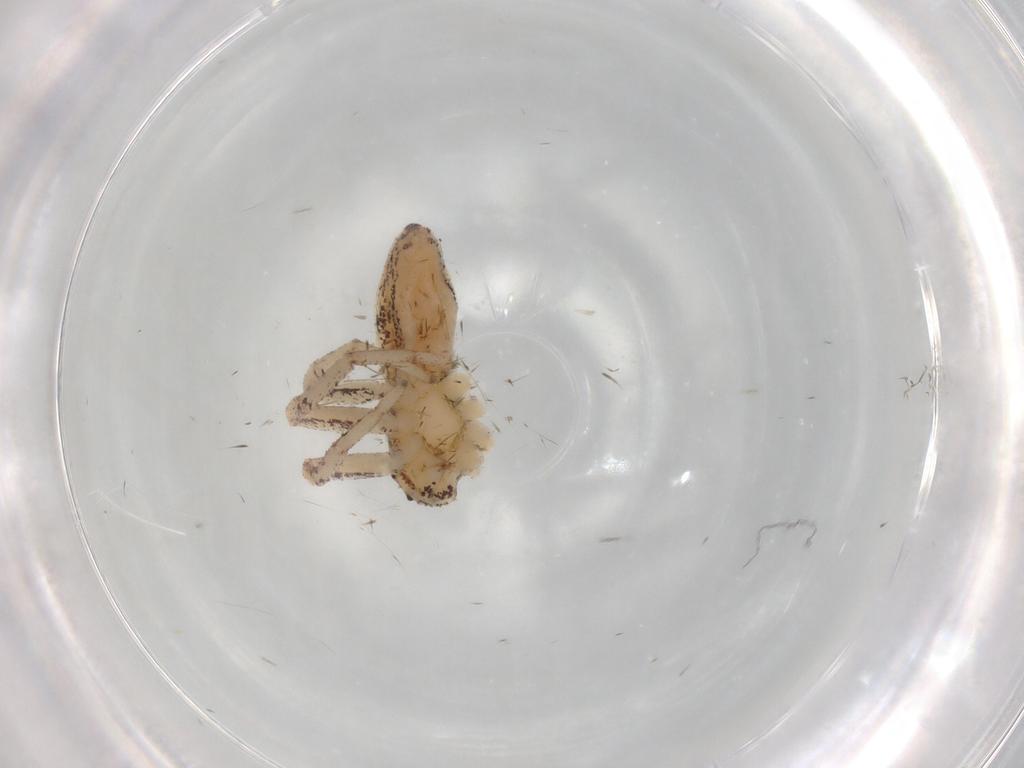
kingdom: Animalia
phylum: Arthropoda
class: Arachnida
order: Araneae
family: Philodromidae
